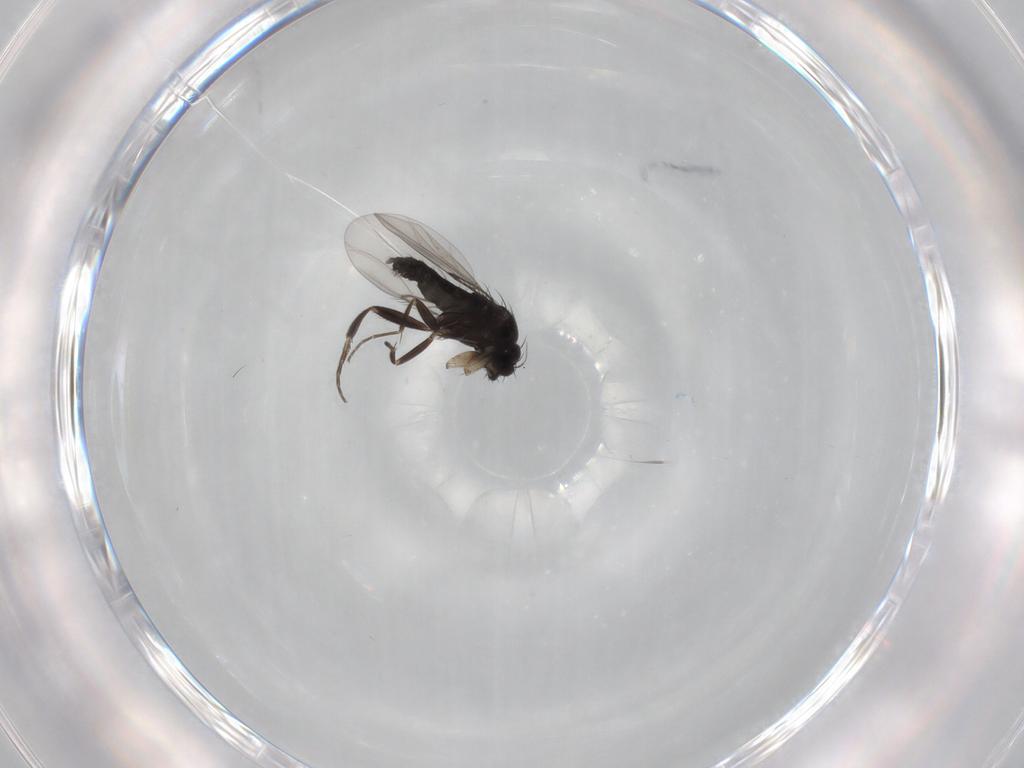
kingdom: Animalia
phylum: Arthropoda
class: Insecta
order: Diptera
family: Phoridae
